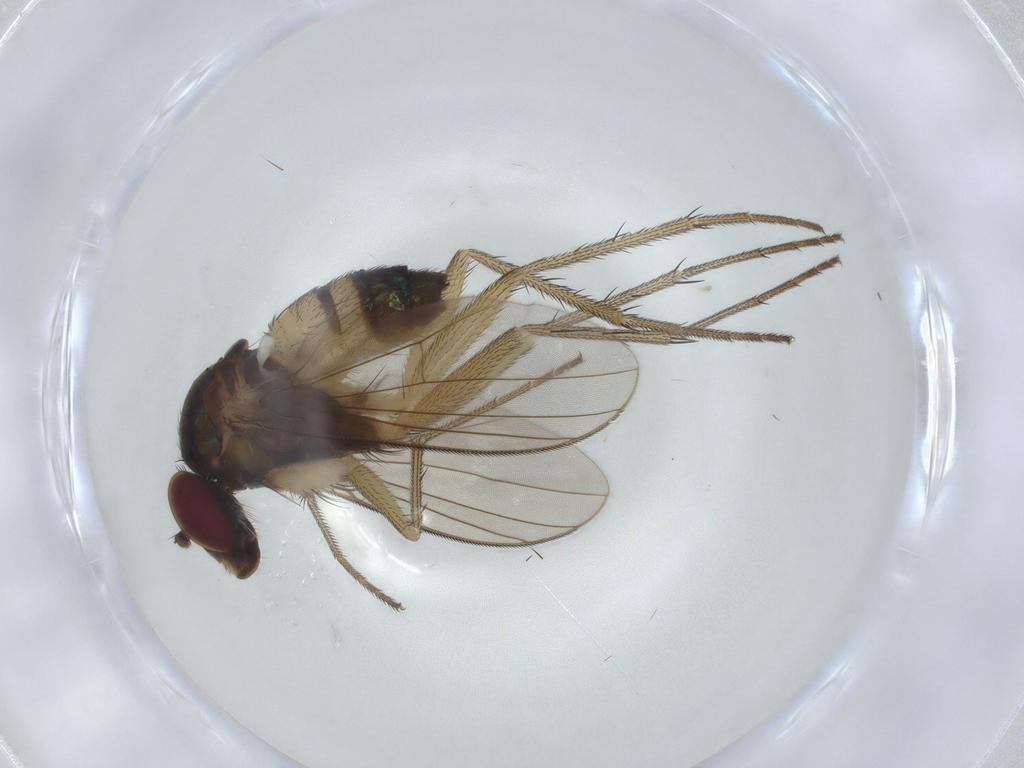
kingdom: Animalia
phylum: Arthropoda
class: Insecta
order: Diptera
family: Dolichopodidae
